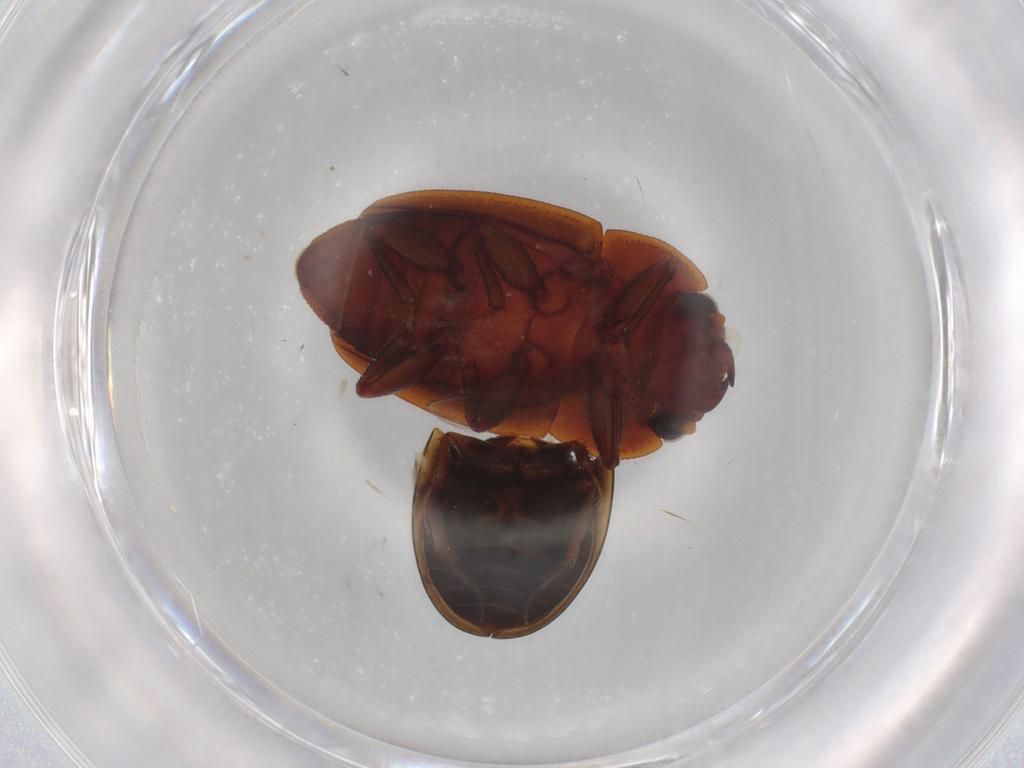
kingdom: Animalia
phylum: Arthropoda
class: Insecta
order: Coleoptera
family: Hydrophilidae
